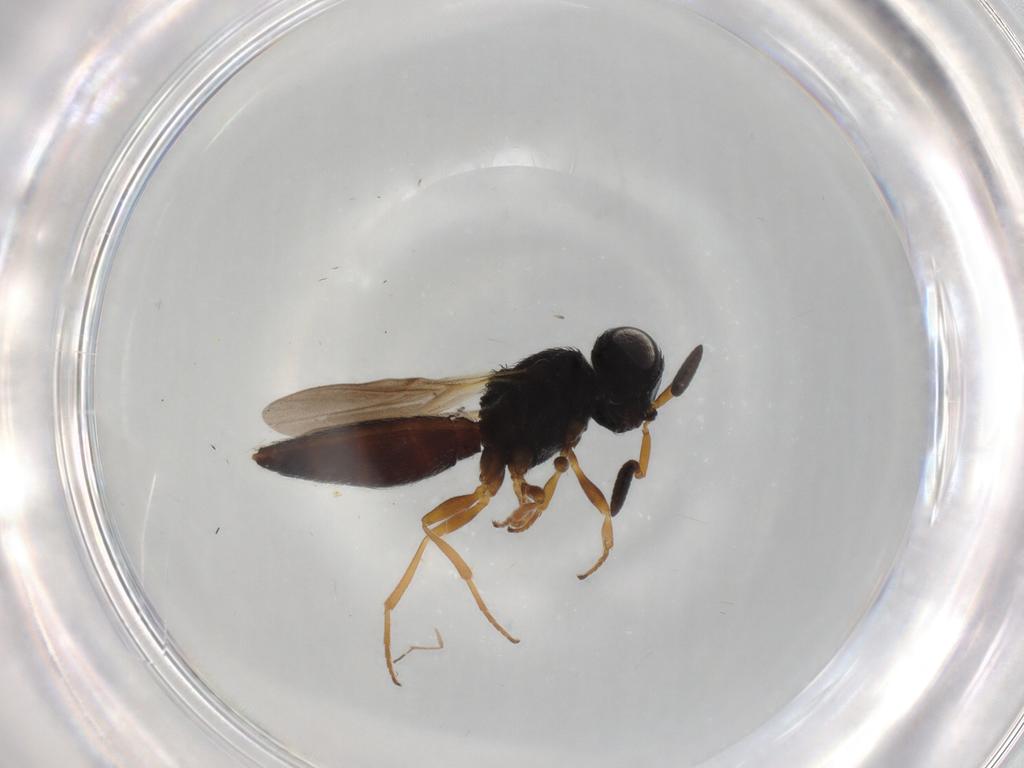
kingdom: Animalia
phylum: Arthropoda
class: Insecta
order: Hymenoptera
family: Scelionidae
